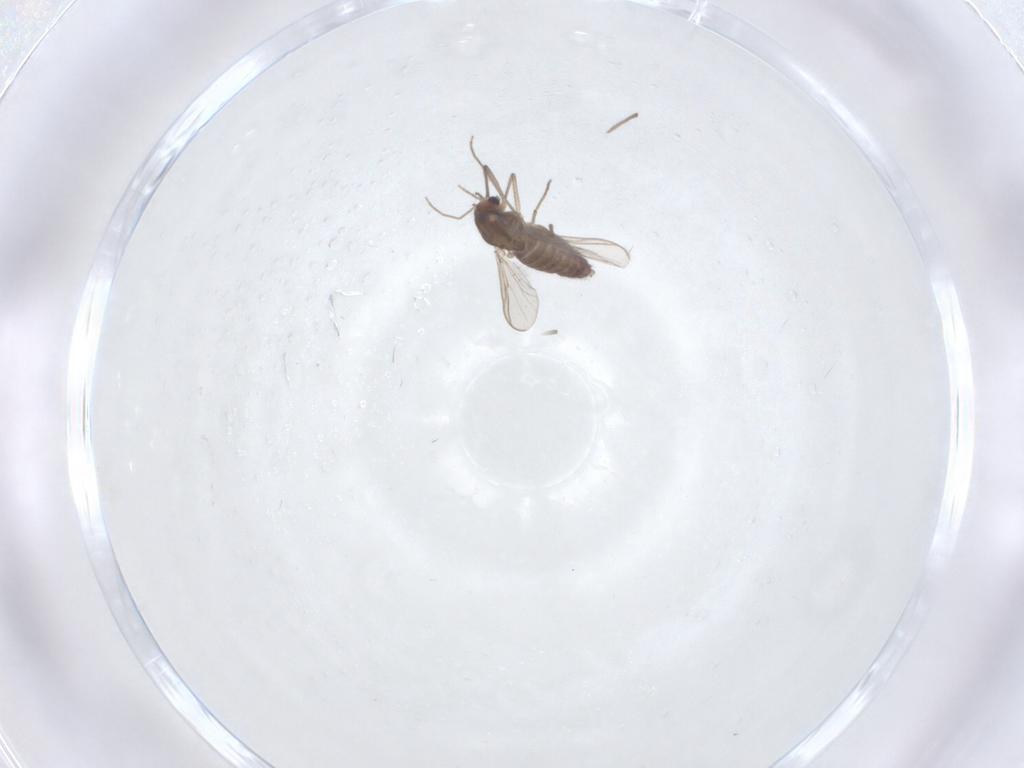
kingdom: Animalia
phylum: Arthropoda
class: Insecta
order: Diptera
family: Chironomidae
